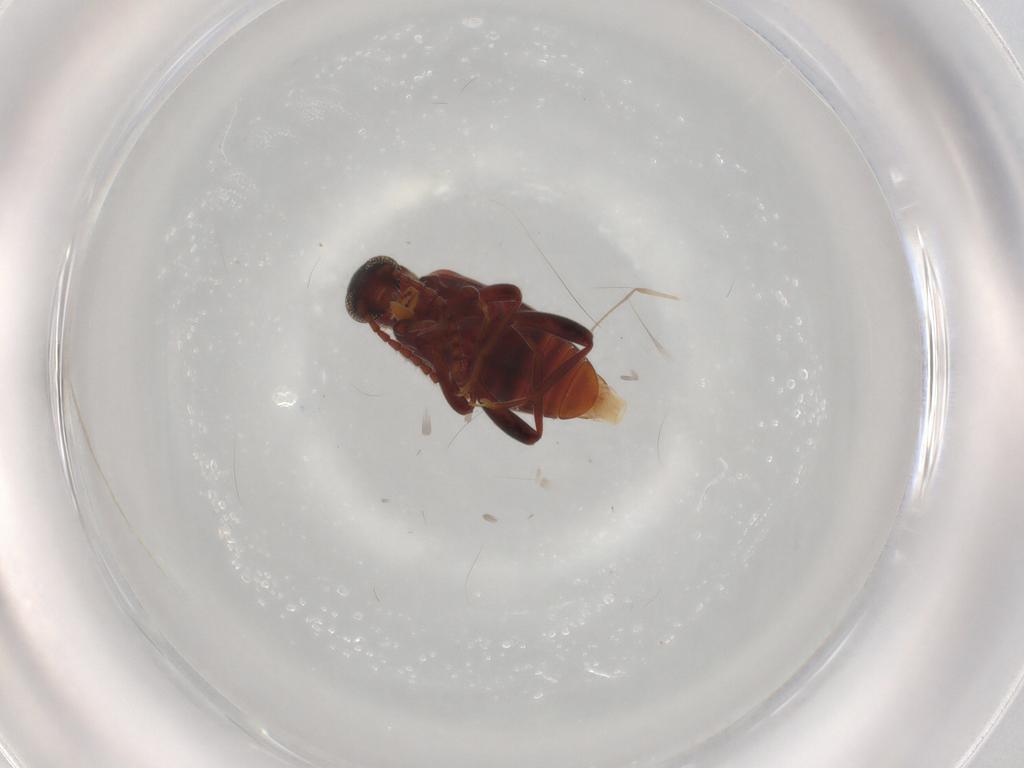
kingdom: Animalia
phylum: Arthropoda
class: Insecta
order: Coleoptera
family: Aderidae
